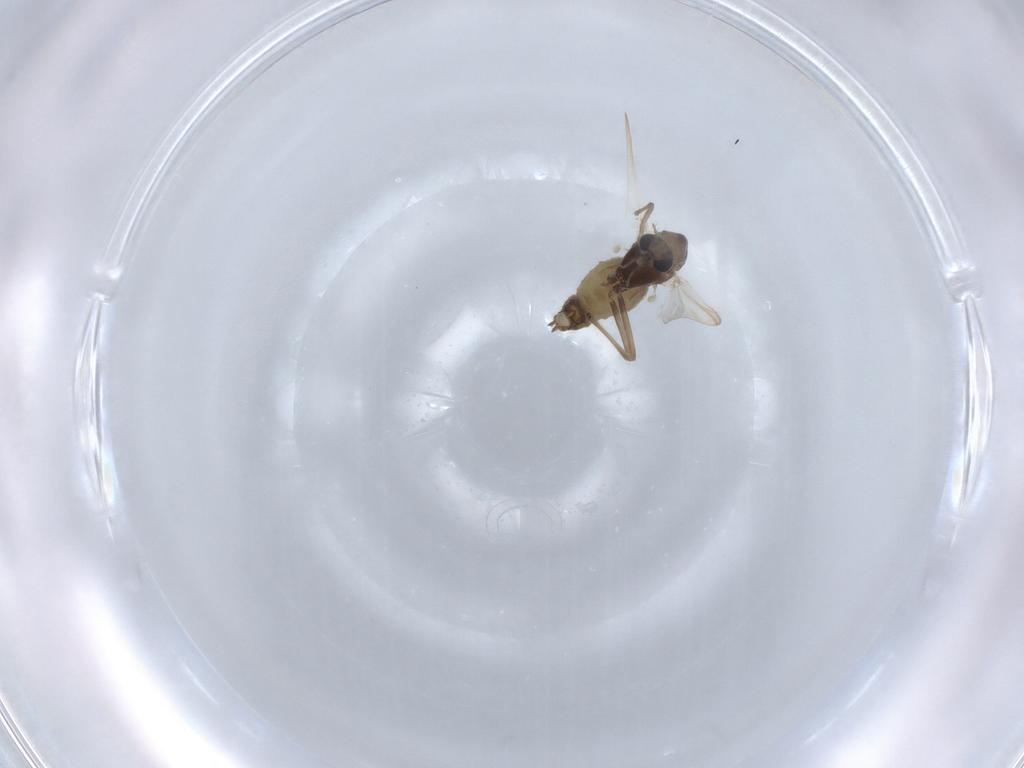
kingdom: Animalia
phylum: Arthropoda
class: Insecta
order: Diptera
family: Chironomidae
